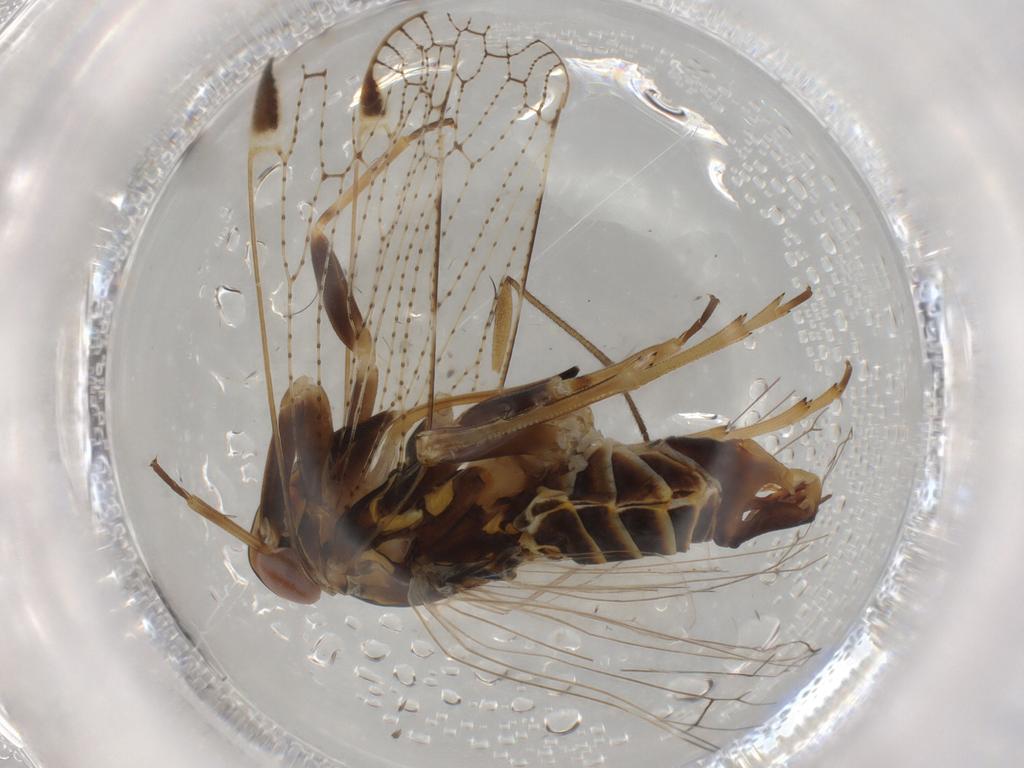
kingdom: Animalia
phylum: Arthropoda
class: Insecta
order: Hemiptera
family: Cixiidae
